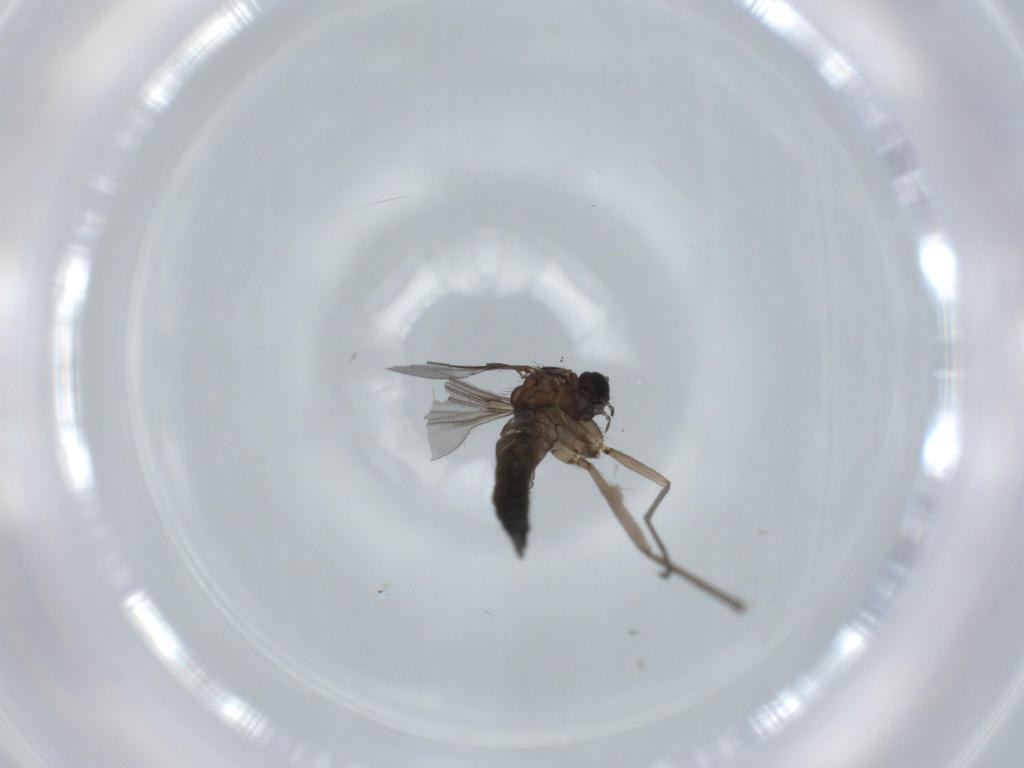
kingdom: Animalia
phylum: Arthropoda
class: Insecta
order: Diptera
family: Sciaridae
